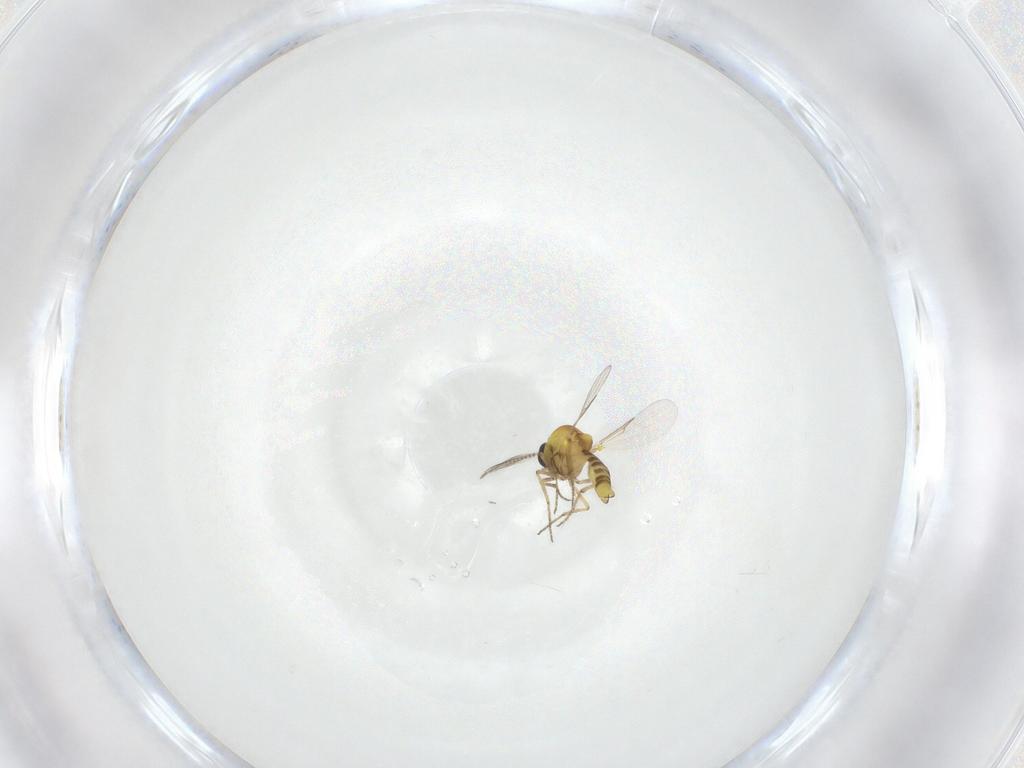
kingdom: Animalia
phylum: Arthropoda
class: Insecta
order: Diptera
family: Ceratopogonidae
